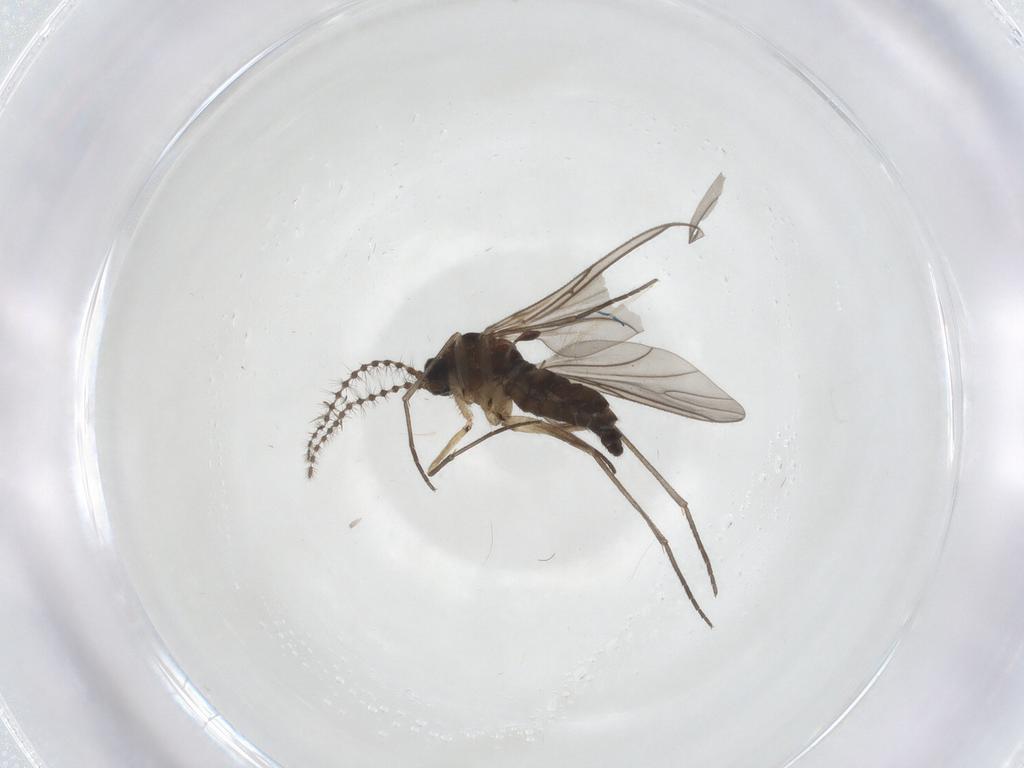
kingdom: Animalia
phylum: Arthropoda
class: Insecta
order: Diptera
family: Sciaridae
